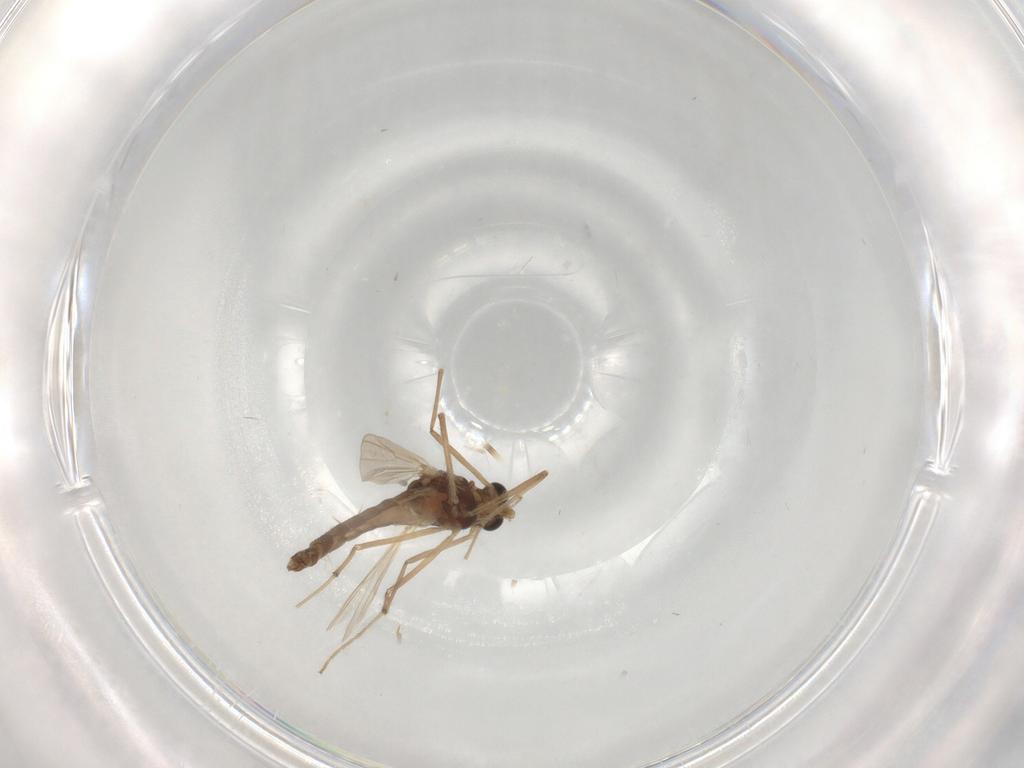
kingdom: Animalia
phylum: Arthropoda
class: Insecta
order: Diptera
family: Chironomidae
